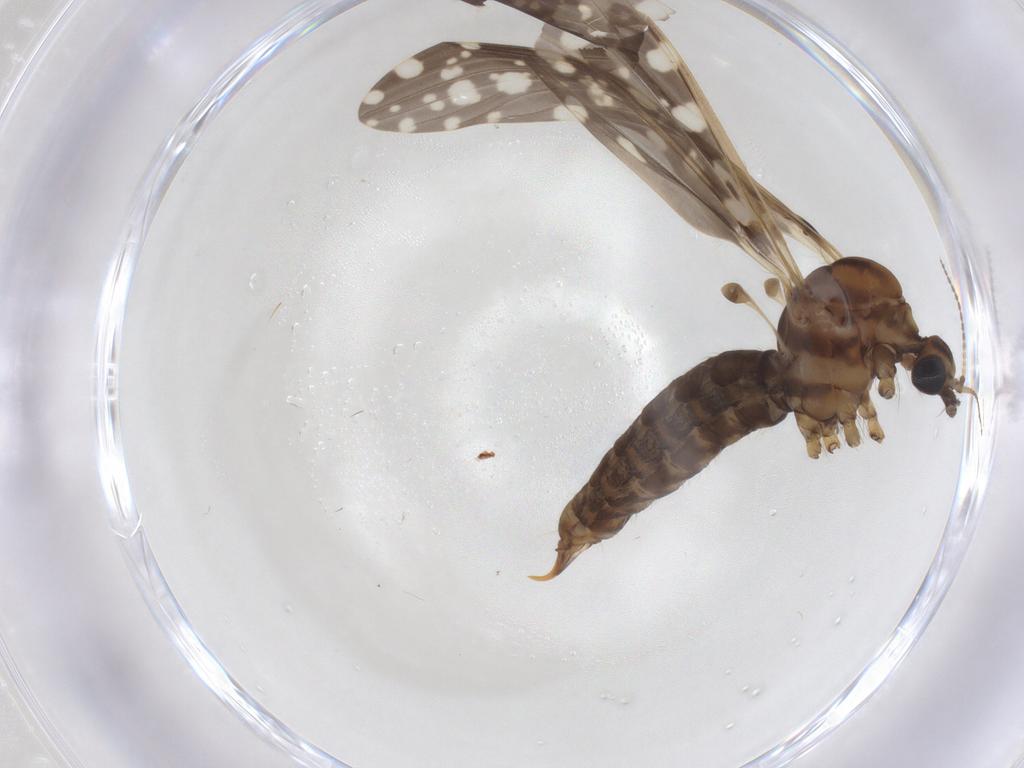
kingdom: Animalia
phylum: Arthropoda
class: Insecta
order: Diptera
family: Limoniidae
